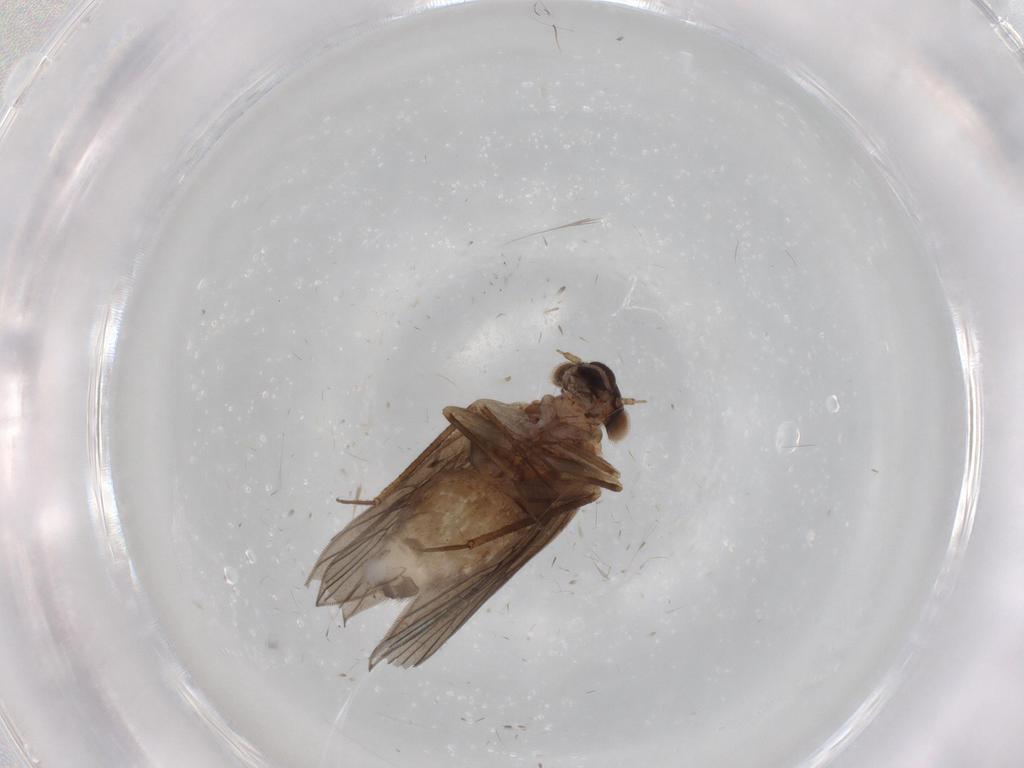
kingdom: Animalia
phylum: Arthropoda
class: Insecta
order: Psocodea
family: Lepidopsocidae
